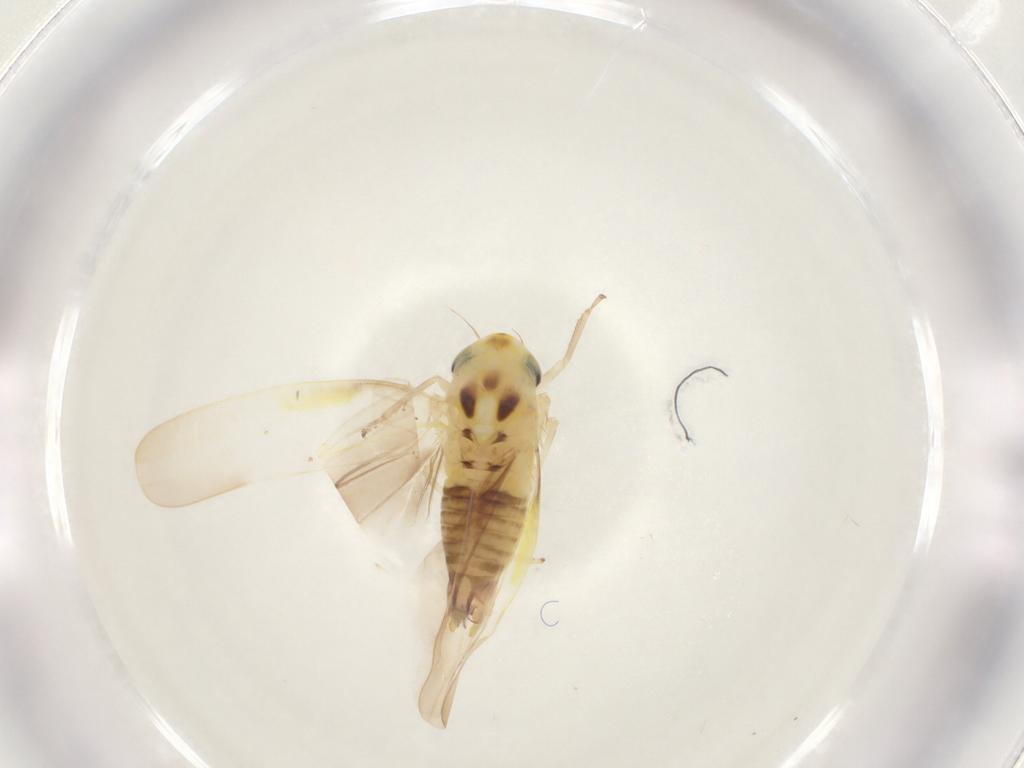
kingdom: Animalia
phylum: Arthropoda
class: Insecta
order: Hemiptera
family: Cicadellidae
